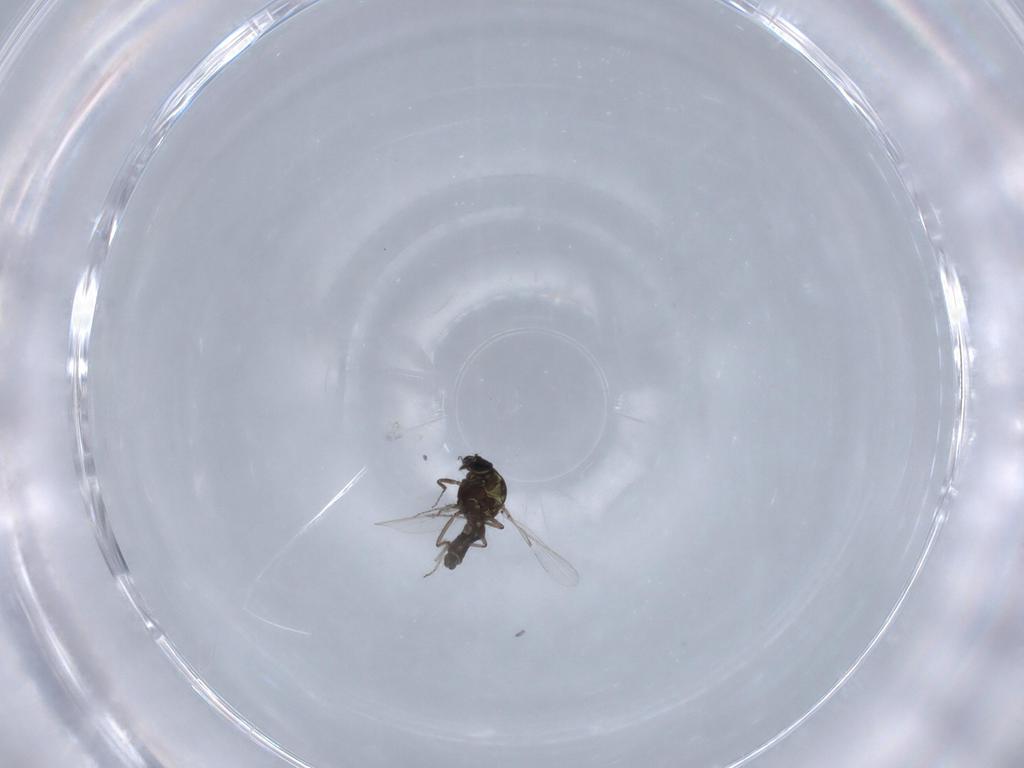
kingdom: Animalia
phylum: Arthropoda
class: Insecta
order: Diptera
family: Ceratopogonidae
